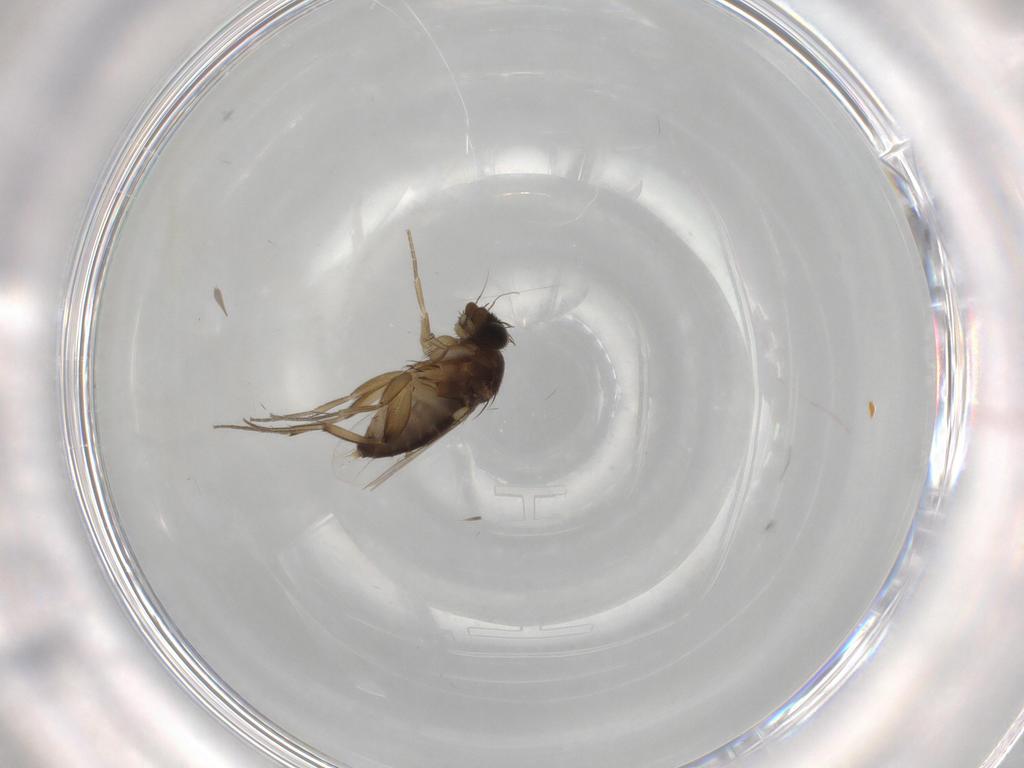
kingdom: Animalia
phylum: Arthropoda
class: Insecta
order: Diptera
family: Phoridae
